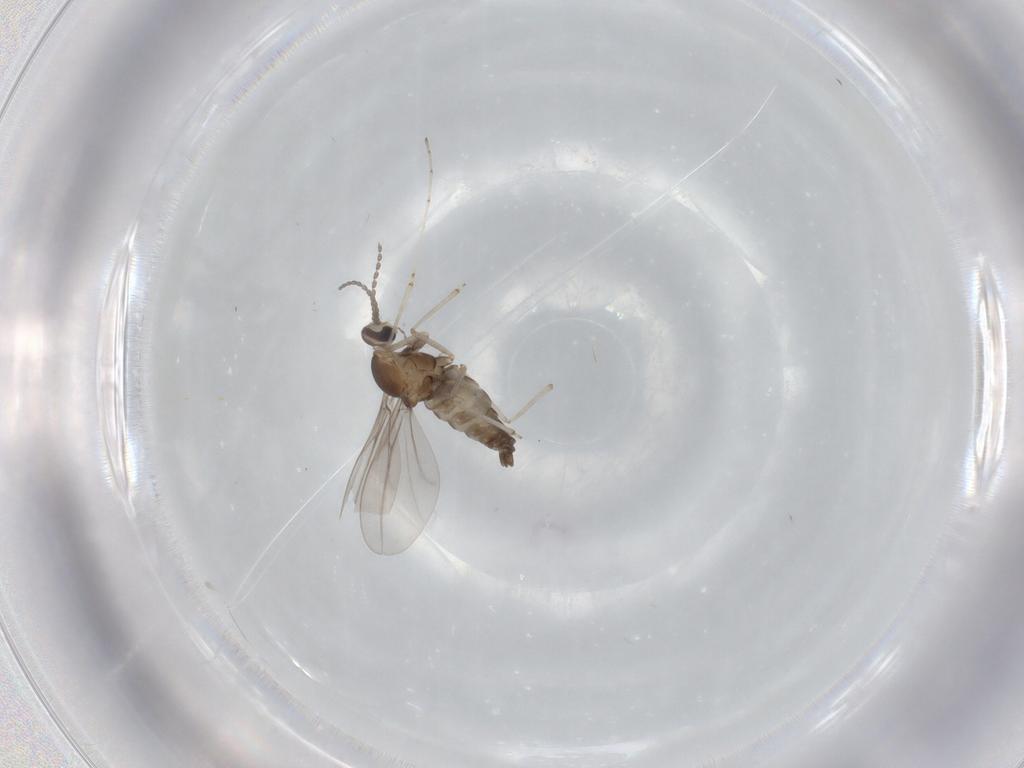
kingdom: Animalia
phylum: Arthropoda
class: Insecta
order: Diptera
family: Cecidomyiidae
